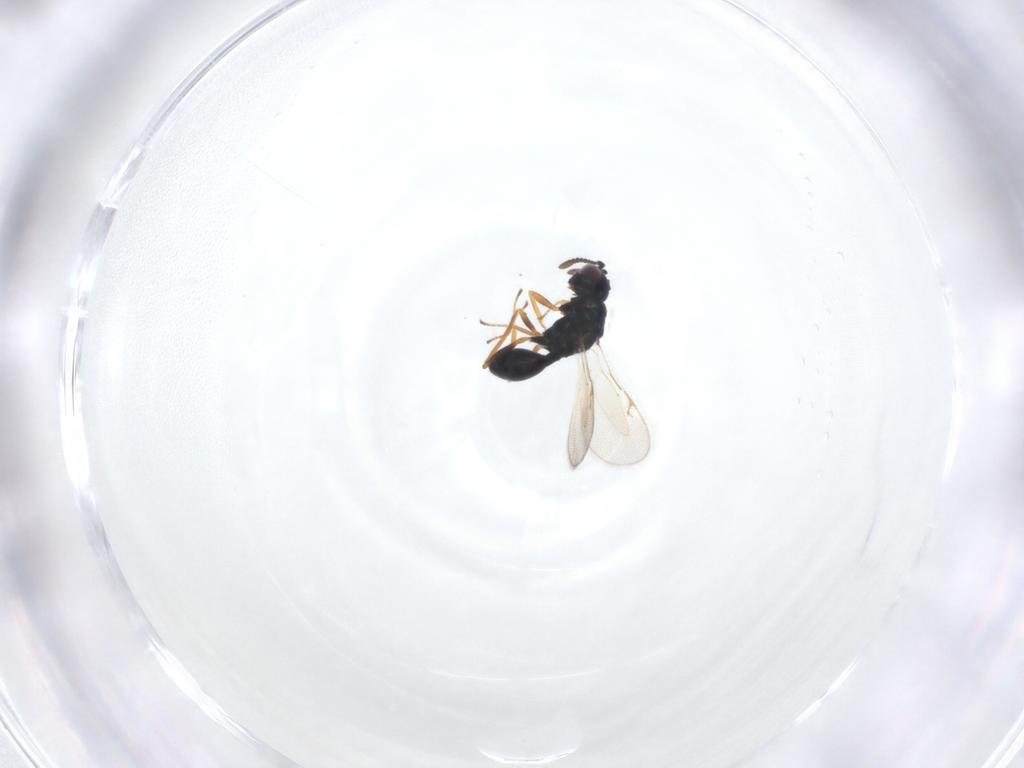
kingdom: Animalia
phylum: Arthropoda
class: Insecta
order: Hymenoptera
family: Chalcidoidea_incertae_sedis
